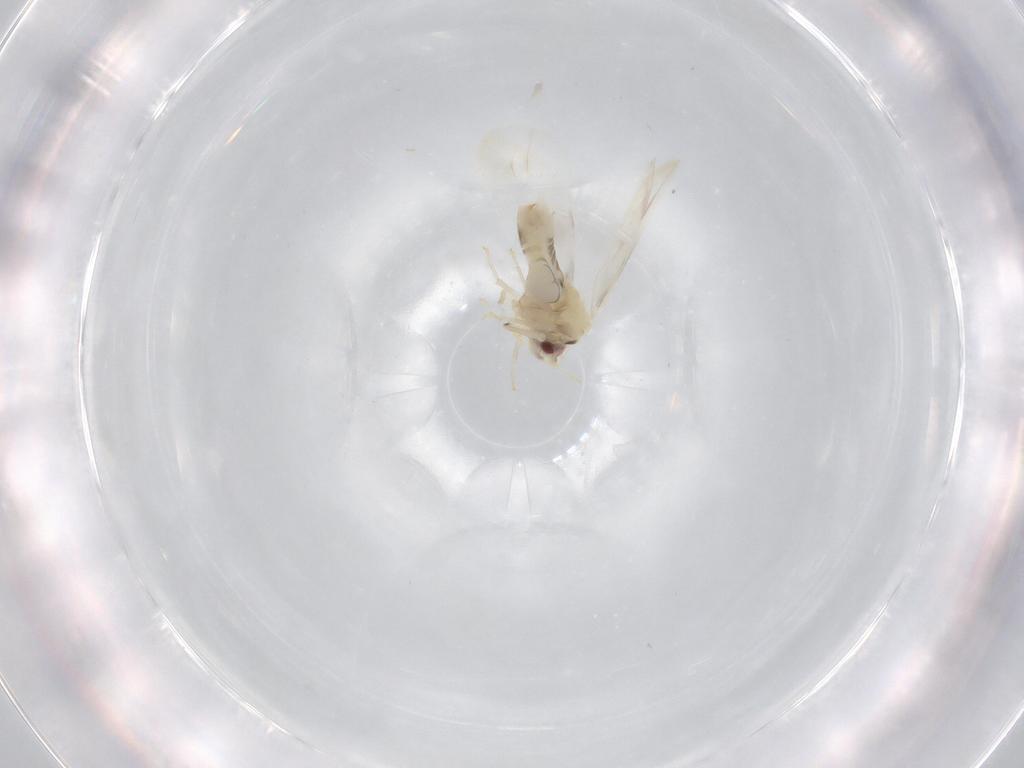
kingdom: Animalia
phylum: Arthropoda
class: Insecta
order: Hemiptera
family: Aleyrodidae
